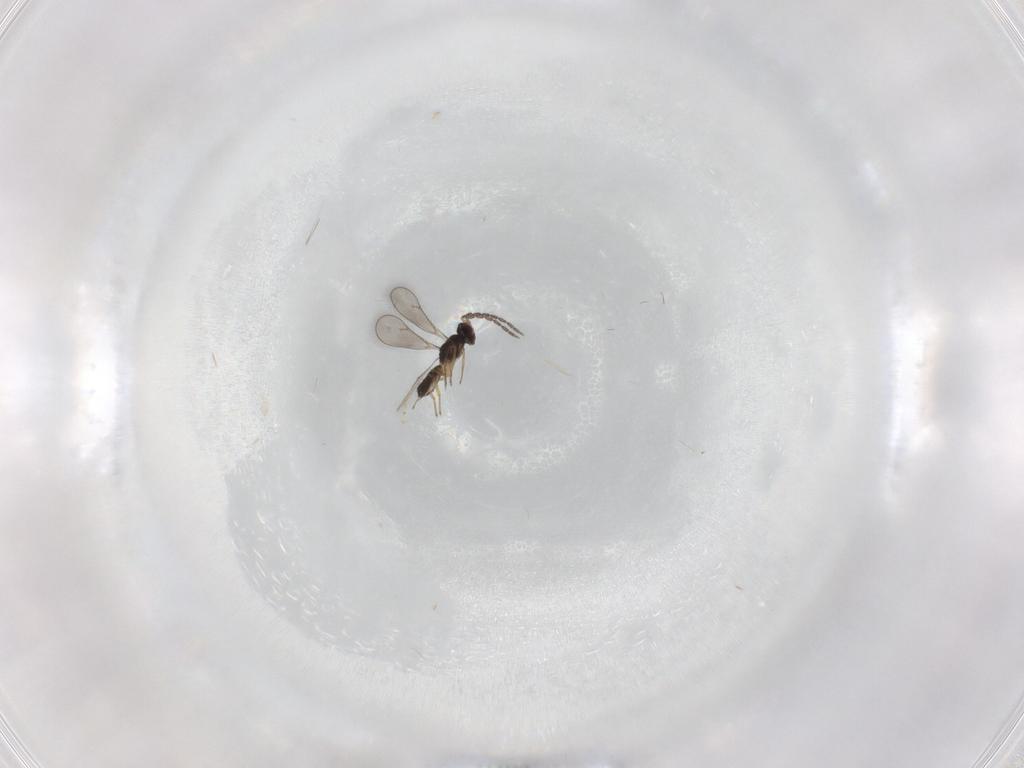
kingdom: Animalia
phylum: Arthropoda
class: Insecta
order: Hymenoptera
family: Eulophidae
